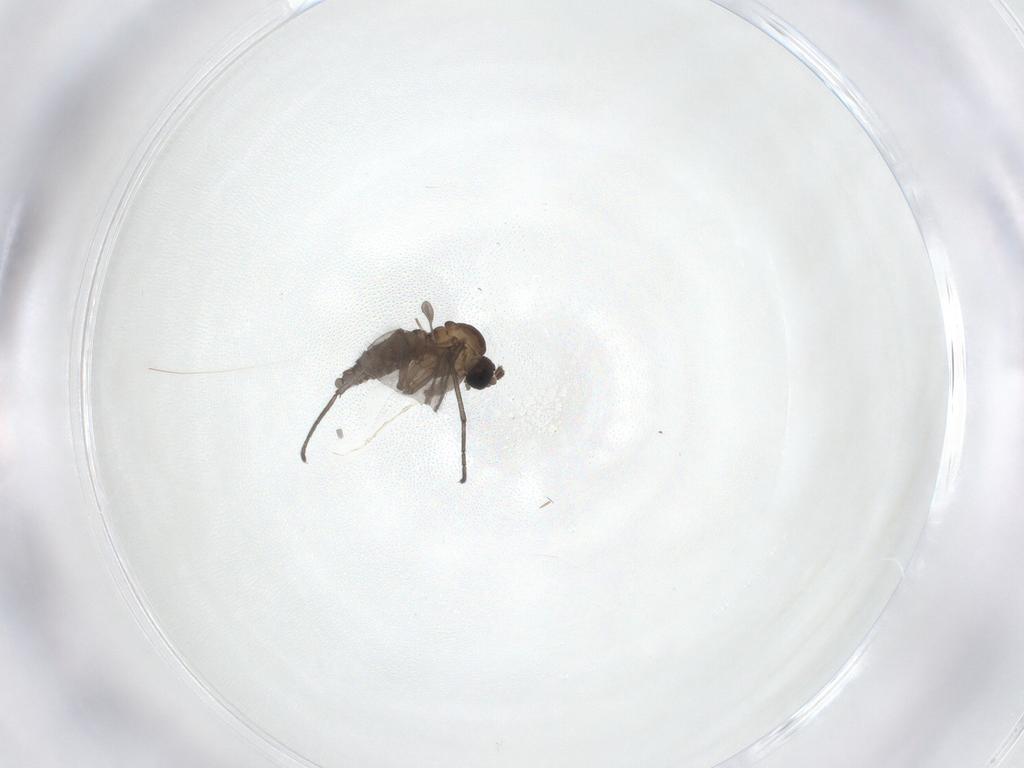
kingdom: Animalia
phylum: Arthropoda
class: Insecta
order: Diptera
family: Sciaridae
